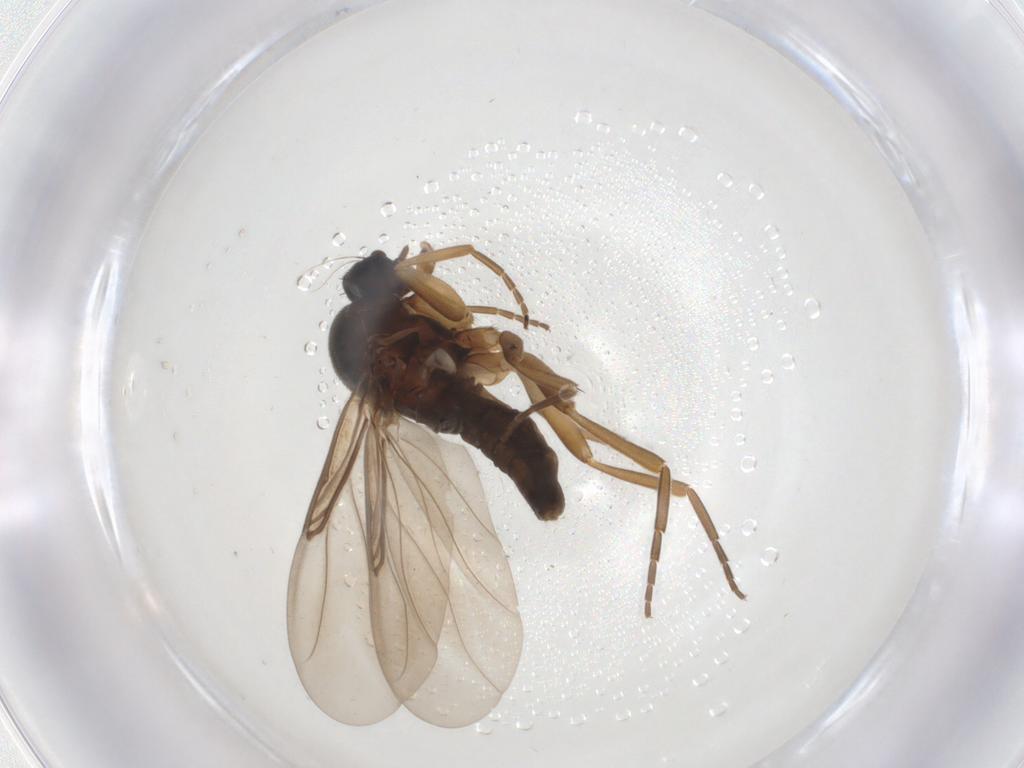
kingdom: Animalia
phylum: Arthropoda
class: Insecta
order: Diptera
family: Phoridae
